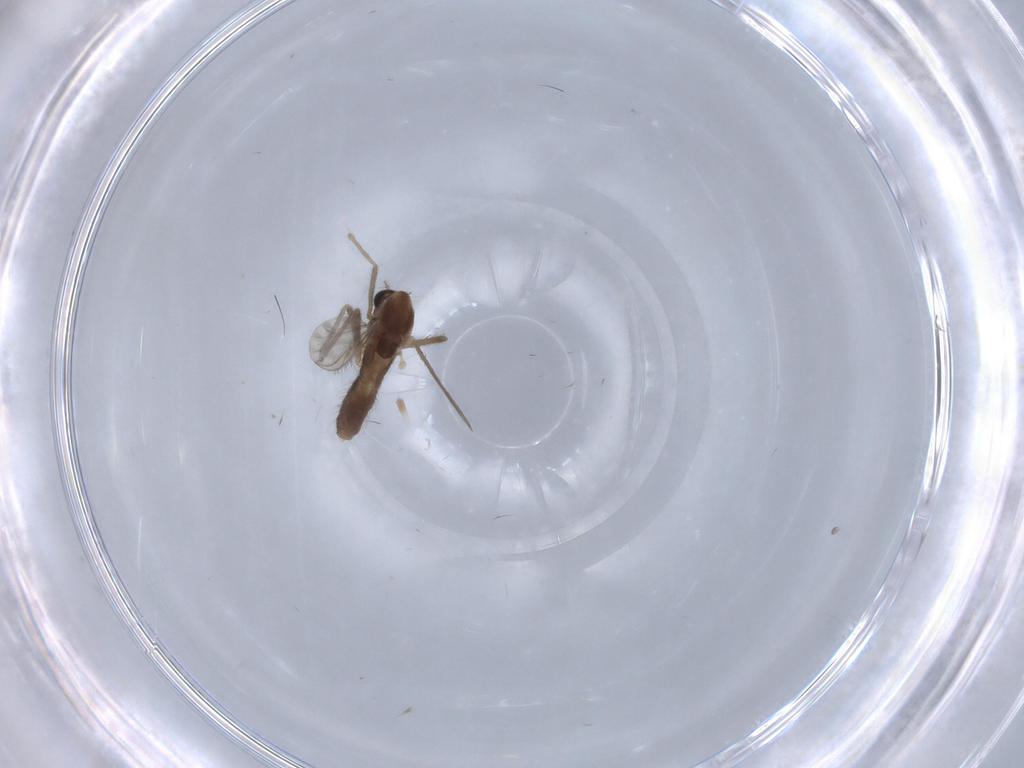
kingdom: Animalia
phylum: Arthropoda
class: Insecta
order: Diptera
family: Chironomidae
